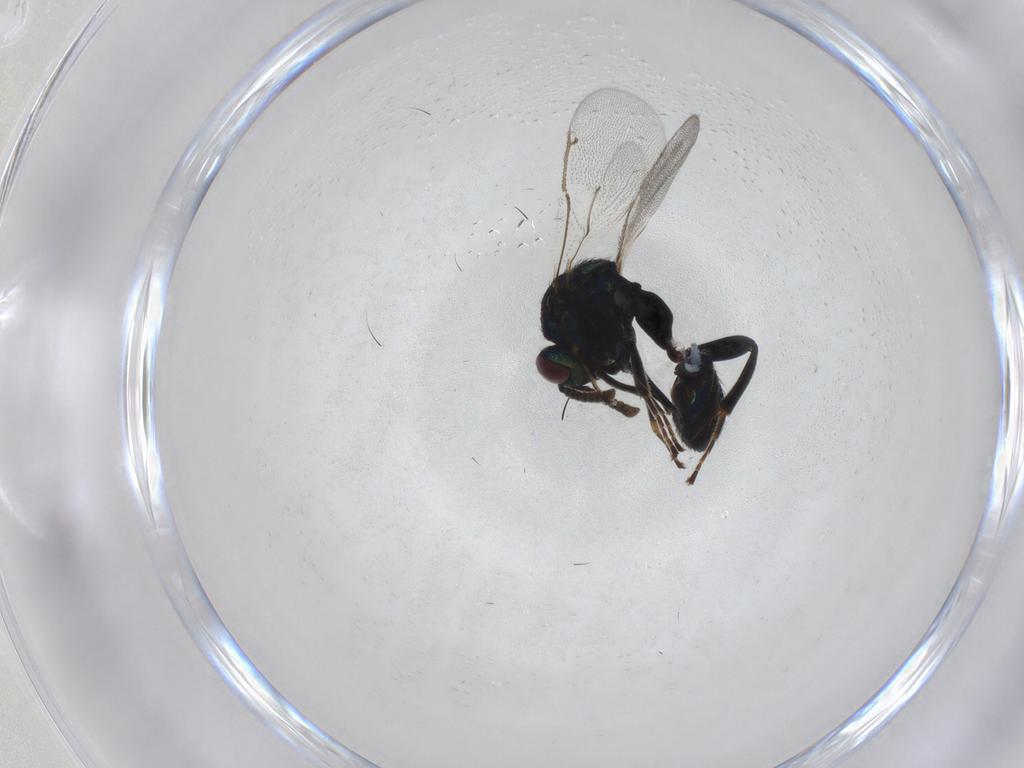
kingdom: Animalia
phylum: Arthropoda
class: Insecta
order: Hymenoptera
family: Ormyridae
